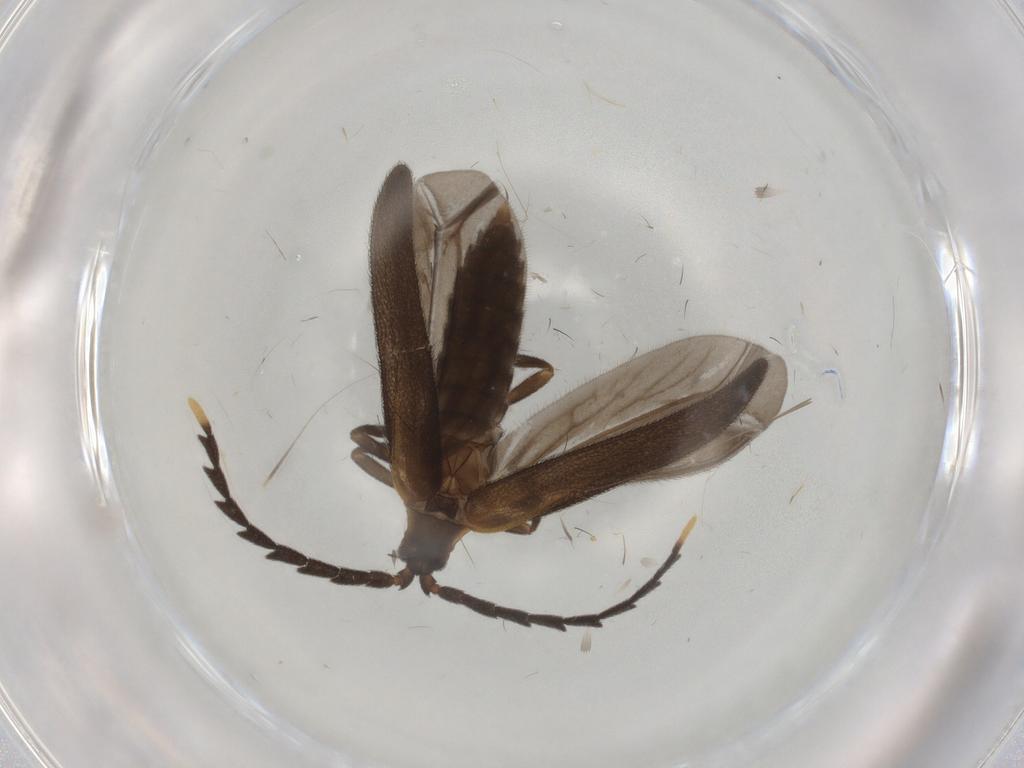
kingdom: Animalia
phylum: Arthropoda
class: Insecta
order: Coleoptera
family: Lycidae
